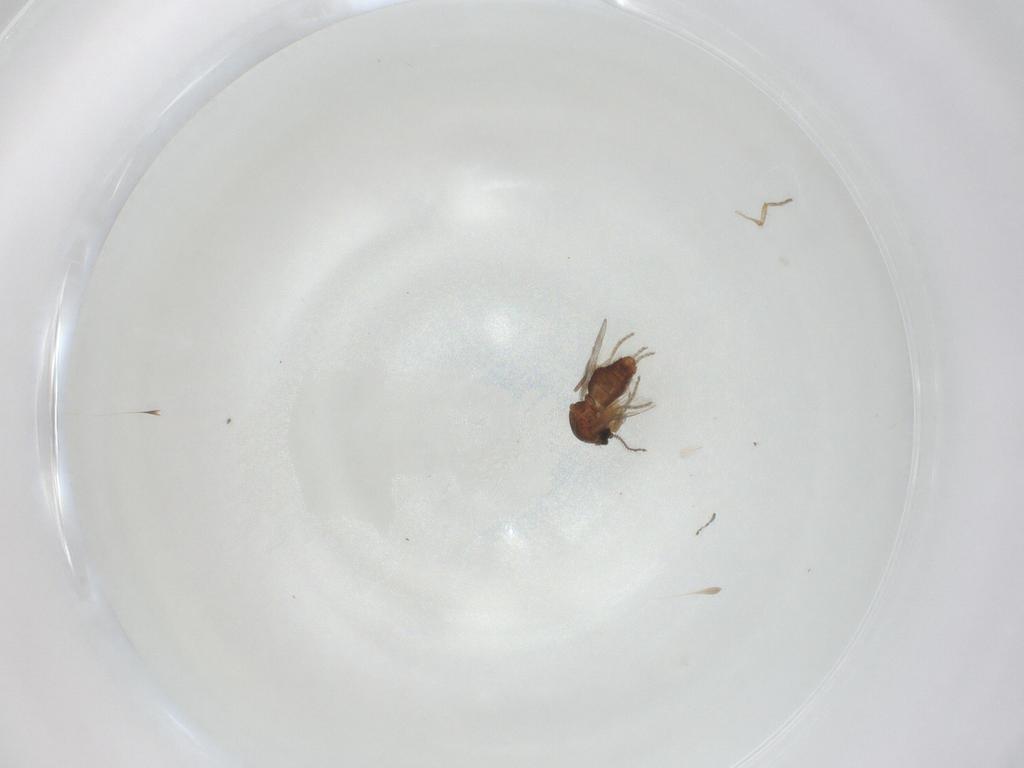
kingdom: Animalia
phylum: Arthropoda
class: Insecta
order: Diptera
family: Ceratopogonidae
